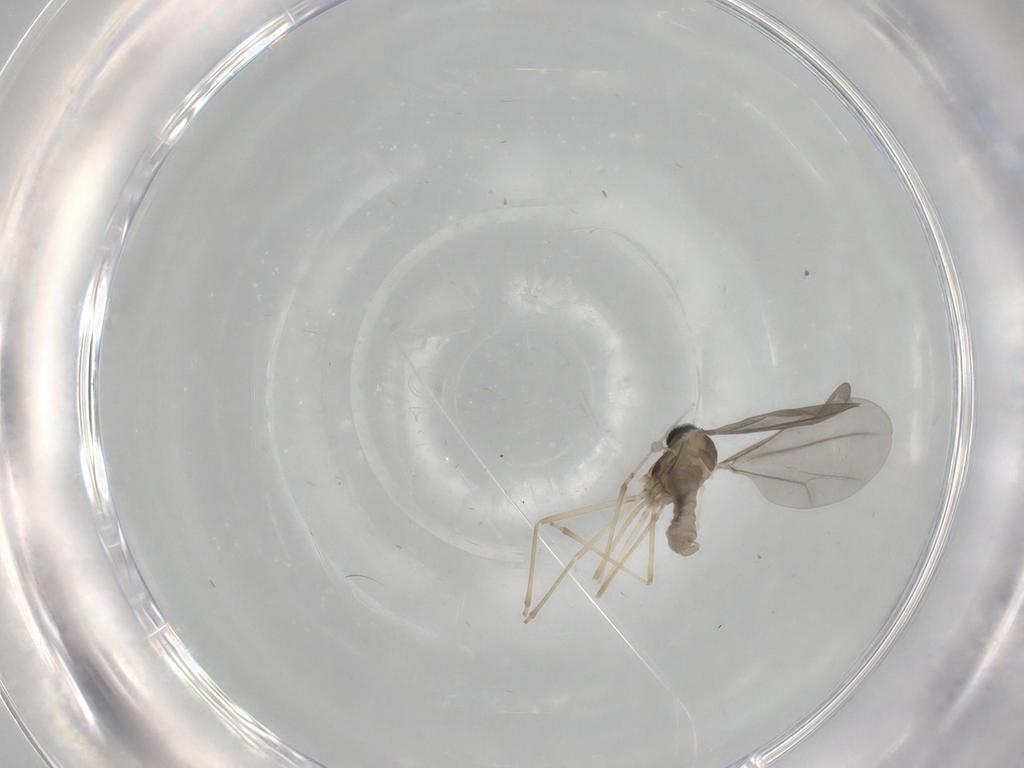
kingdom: Animalia
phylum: Arthropoda
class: Insecta
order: Diptera
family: Cecidomyiidae
